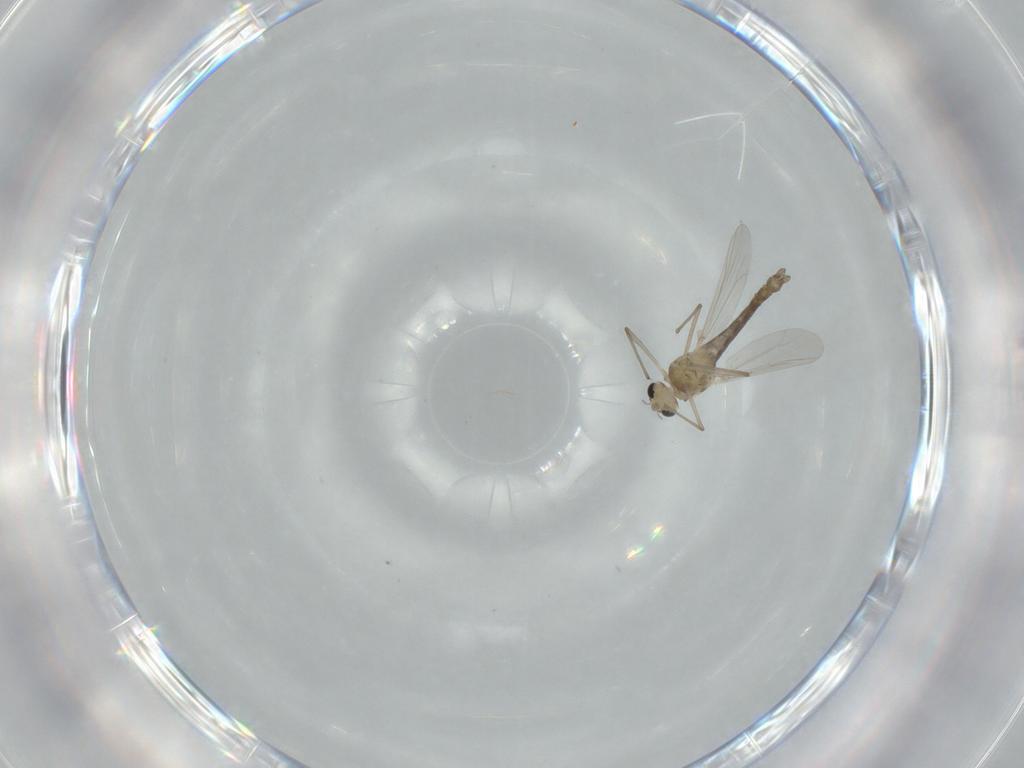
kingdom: Animalia
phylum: Arthropoda
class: Insecta
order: Diptera
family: Chironomidae
